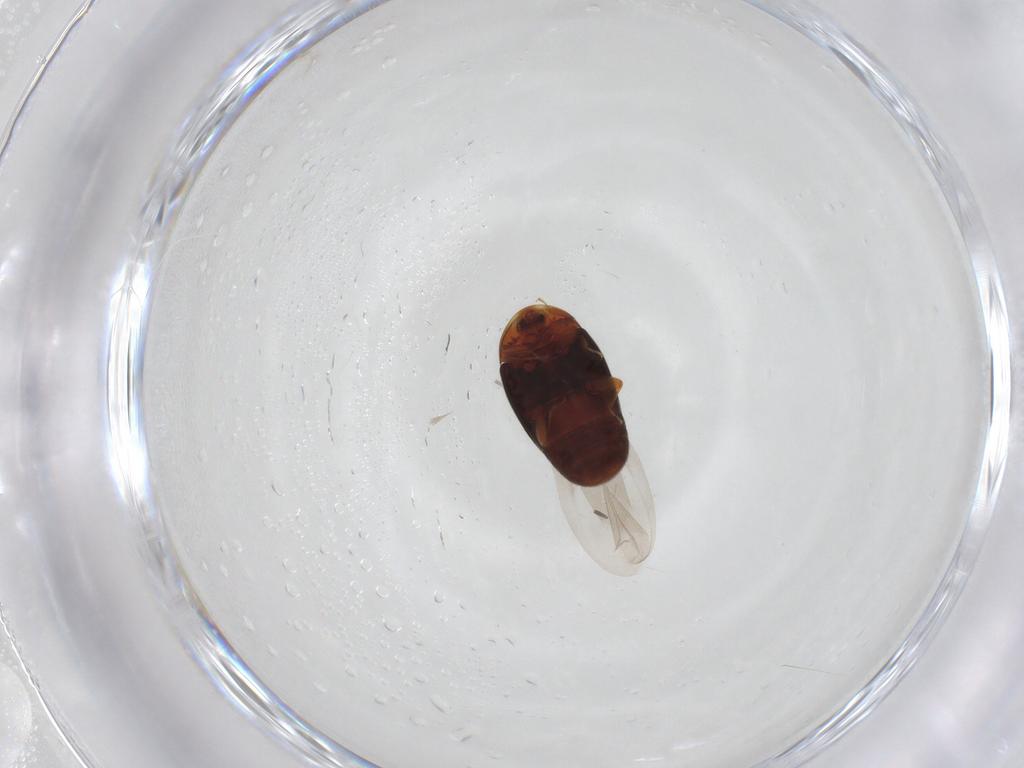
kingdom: Animalia
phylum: Arthropoda
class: Insecta
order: Coleoptera
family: Corylophidae
